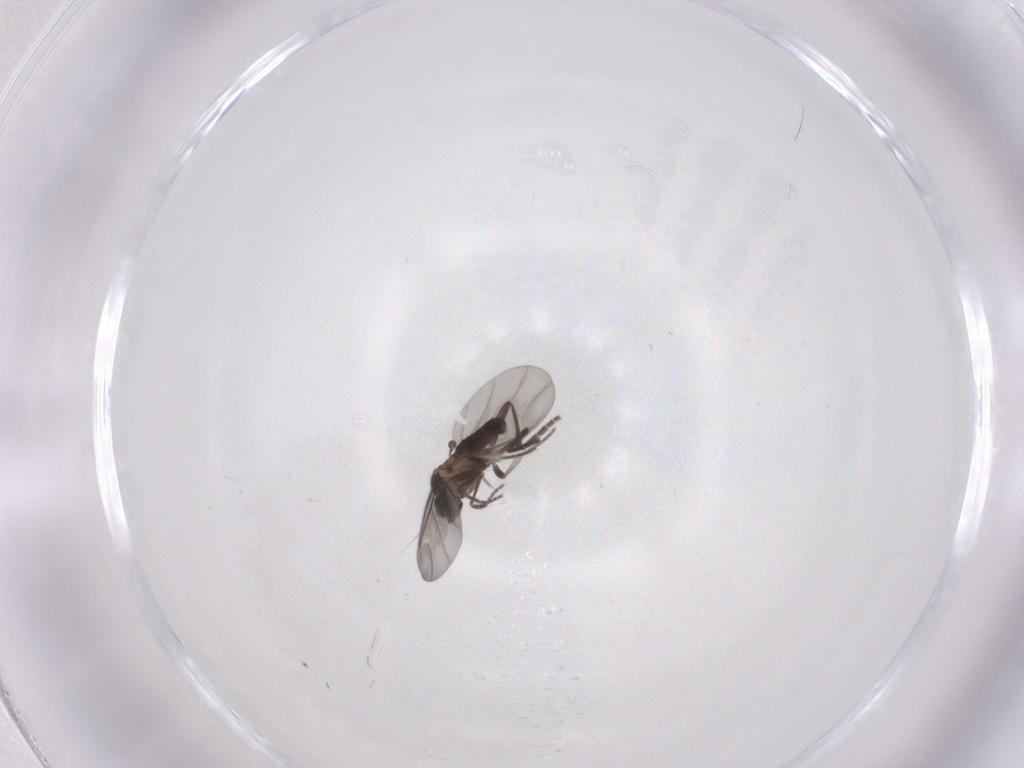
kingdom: Animalia
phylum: Arthropoda
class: Insecta
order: Diptera
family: Phoridae
